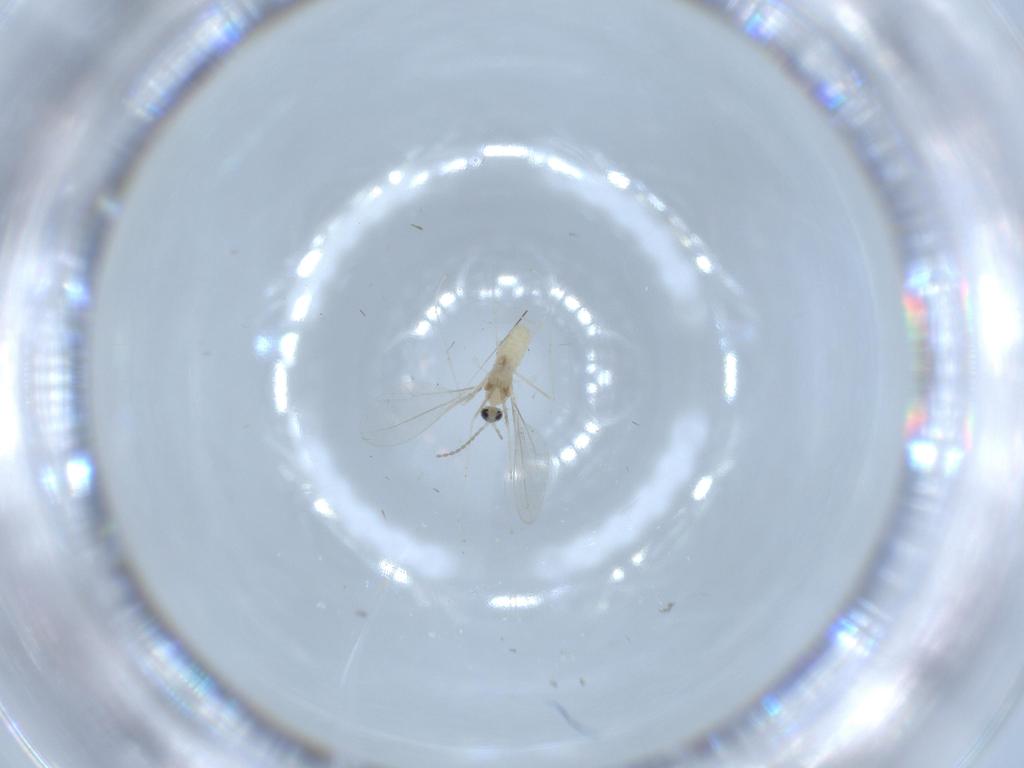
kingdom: Animalia
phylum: Arthropoda
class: Insecta
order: Diptera
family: Cecidomyiidae
